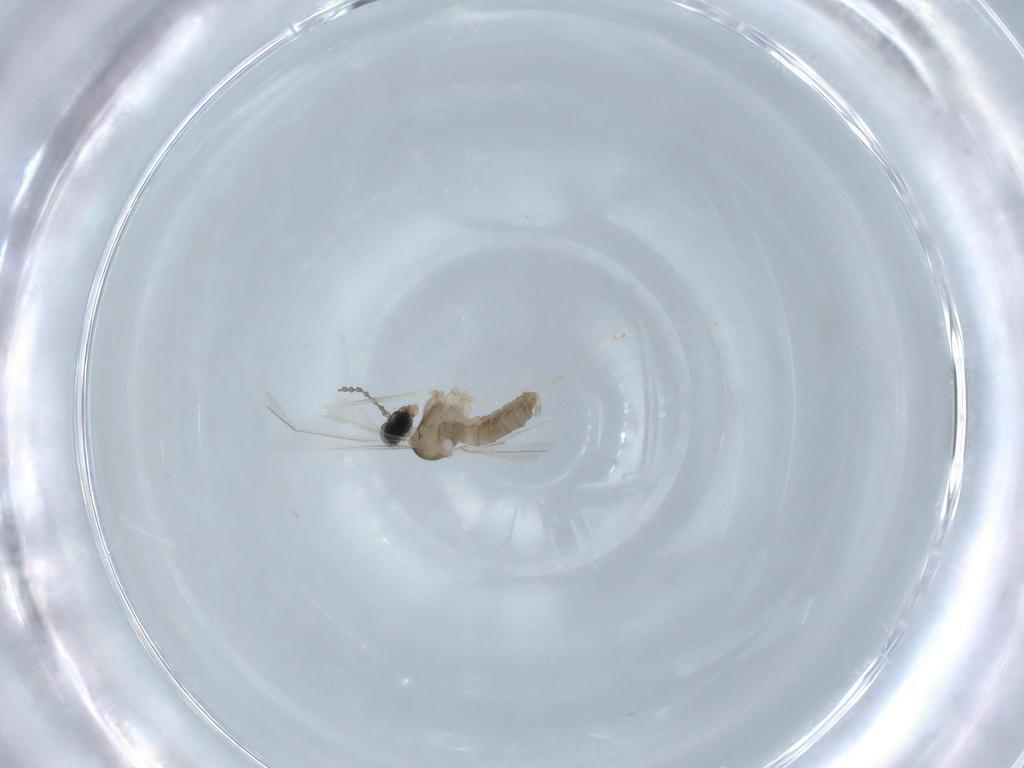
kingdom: Animalia
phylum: Arthropoda
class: Insecta
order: Diptera
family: Cecidomyiidae
